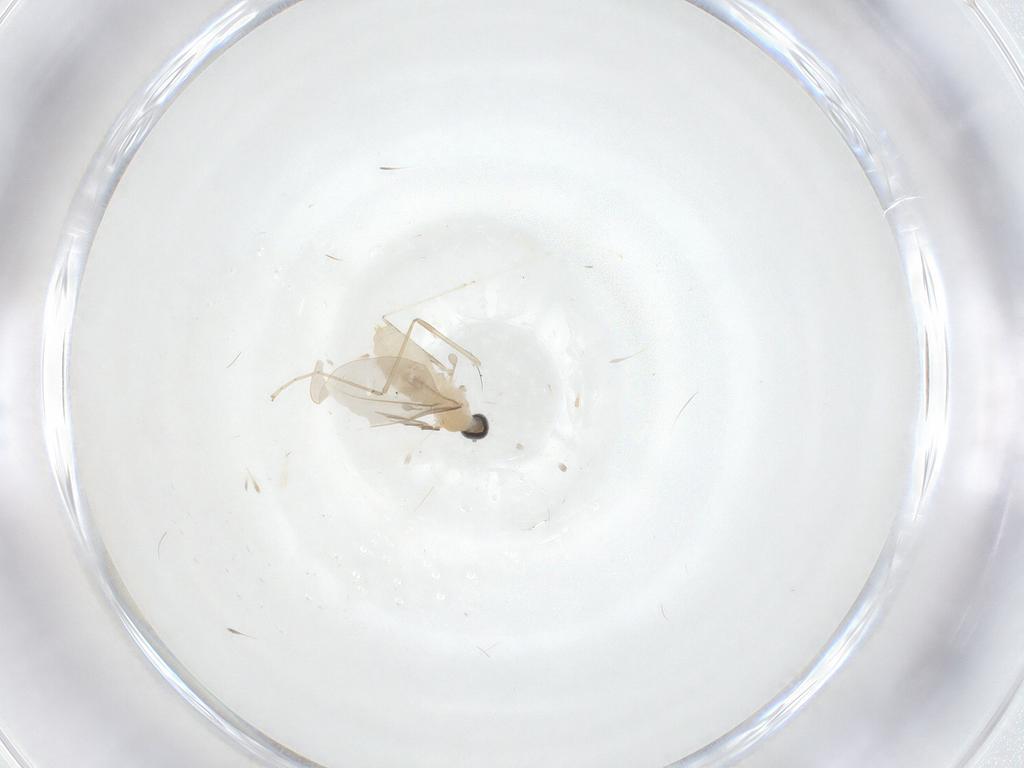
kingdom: Animalia
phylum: Arthropoda
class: Insecta
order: Diptera
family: Cecidomyiidae
